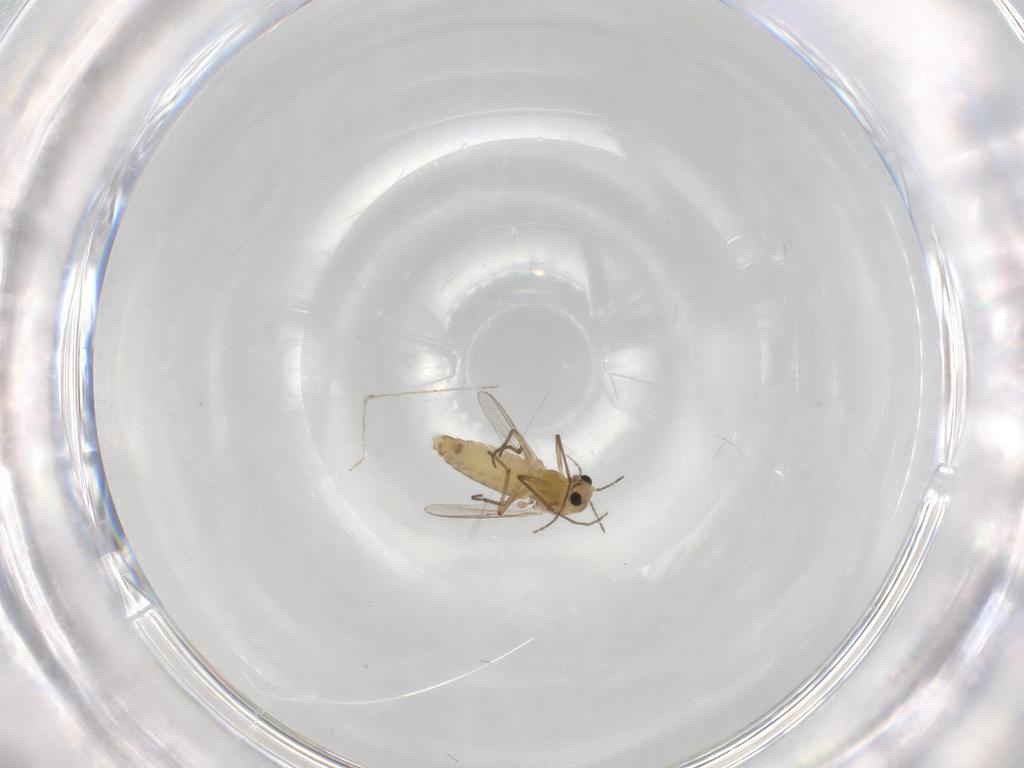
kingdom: Animalia
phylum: Arthropoda
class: Insecta
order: Diptera
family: Chironomidae
